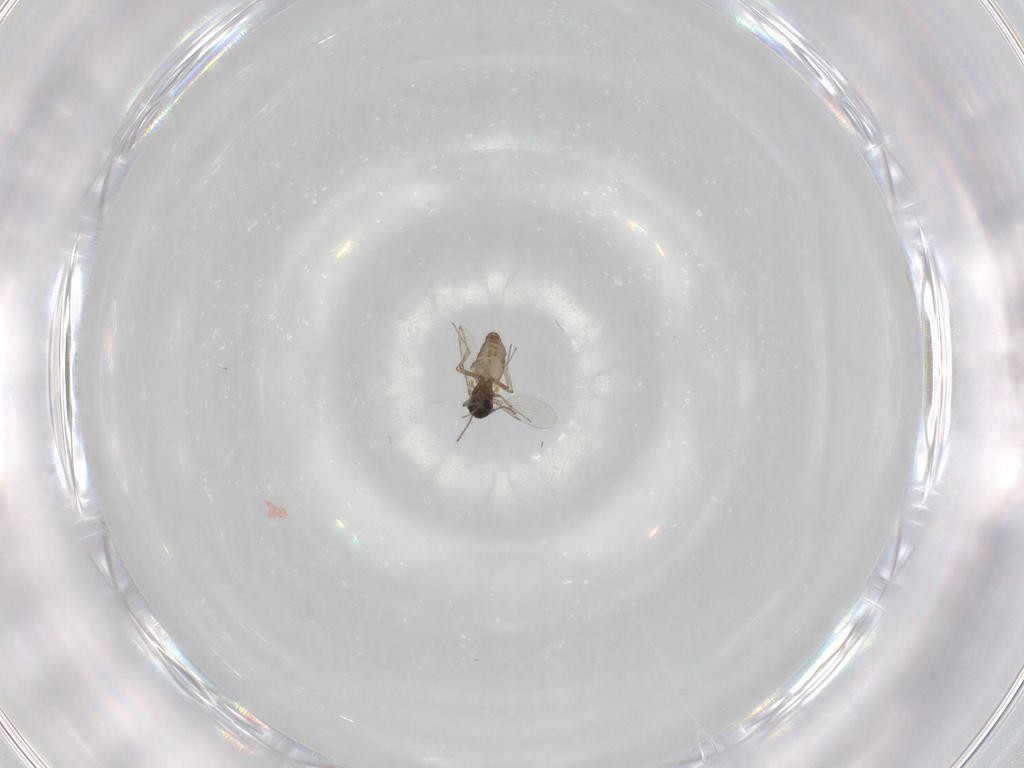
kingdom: Animalia
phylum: Arthropoda
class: Insecta
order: Diptera
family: Ceratopogonidae
